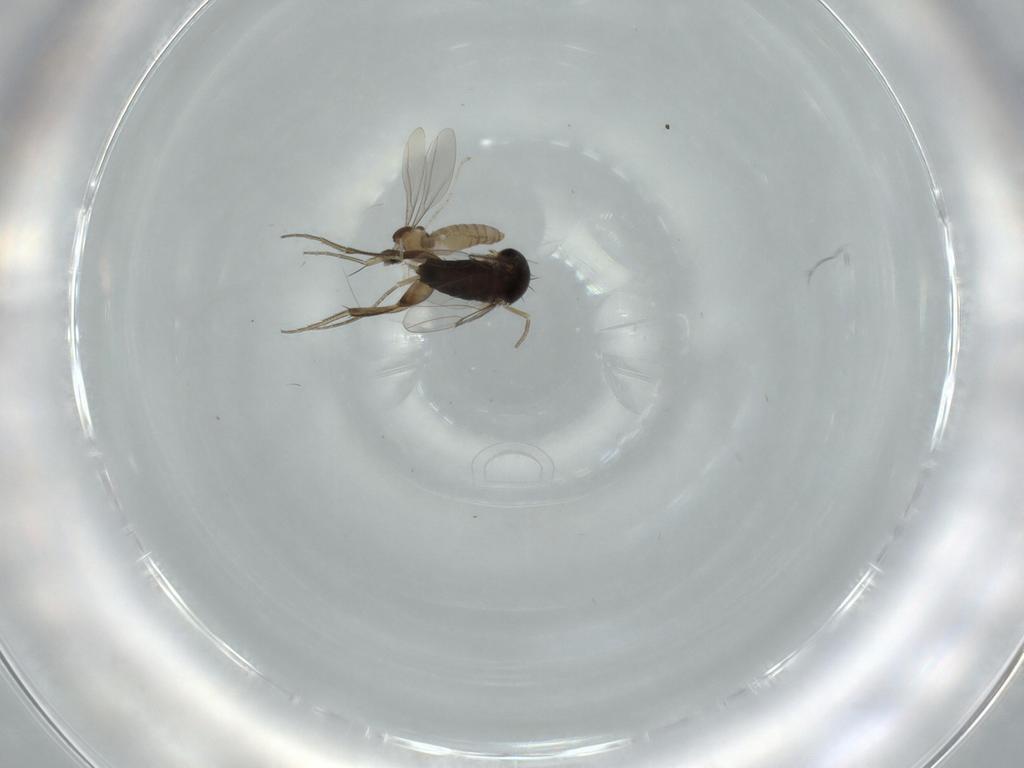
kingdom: Animalia
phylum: Arthropoda
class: Insecta
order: Diptera
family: Phoridae
